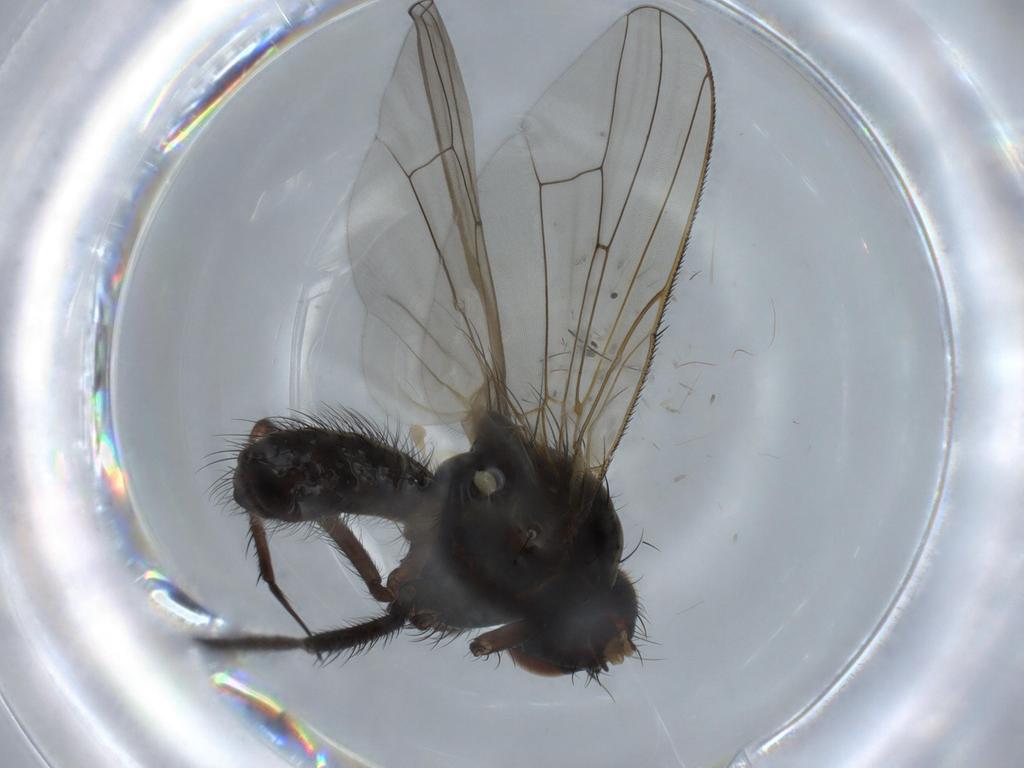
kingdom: Animalia
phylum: Arthropoda
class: Insecta
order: Diptera
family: Anthomyiidae
